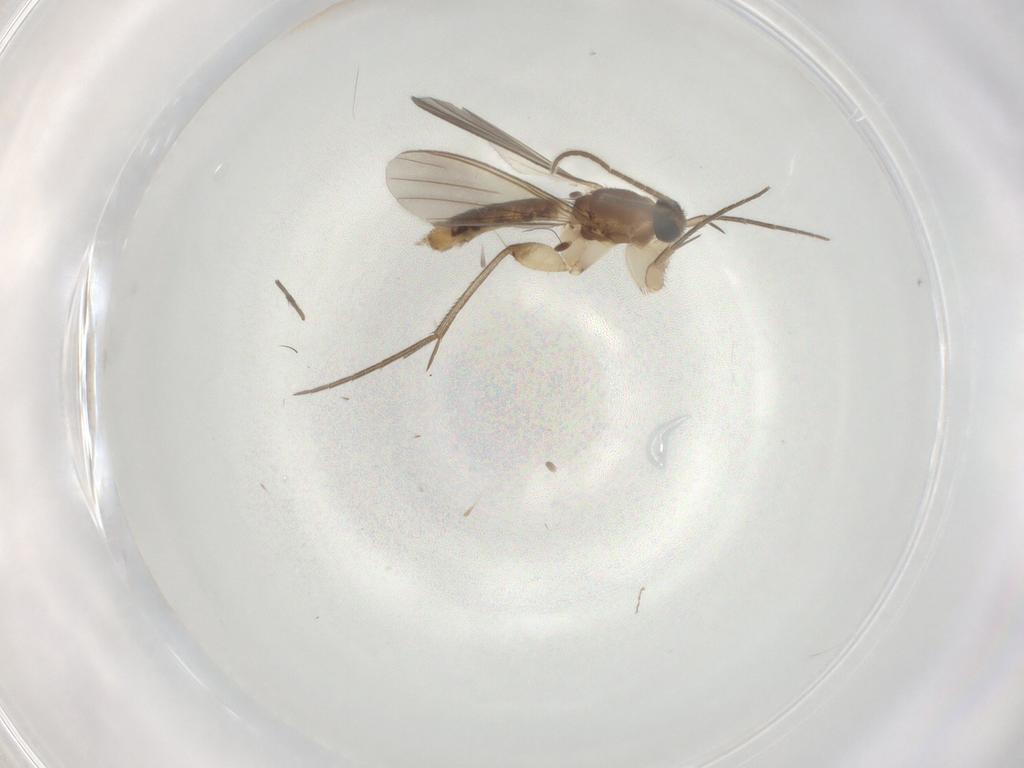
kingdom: Animalia
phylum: Arthropoda
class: Insecta
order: Diptera
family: Mycetophilidae
